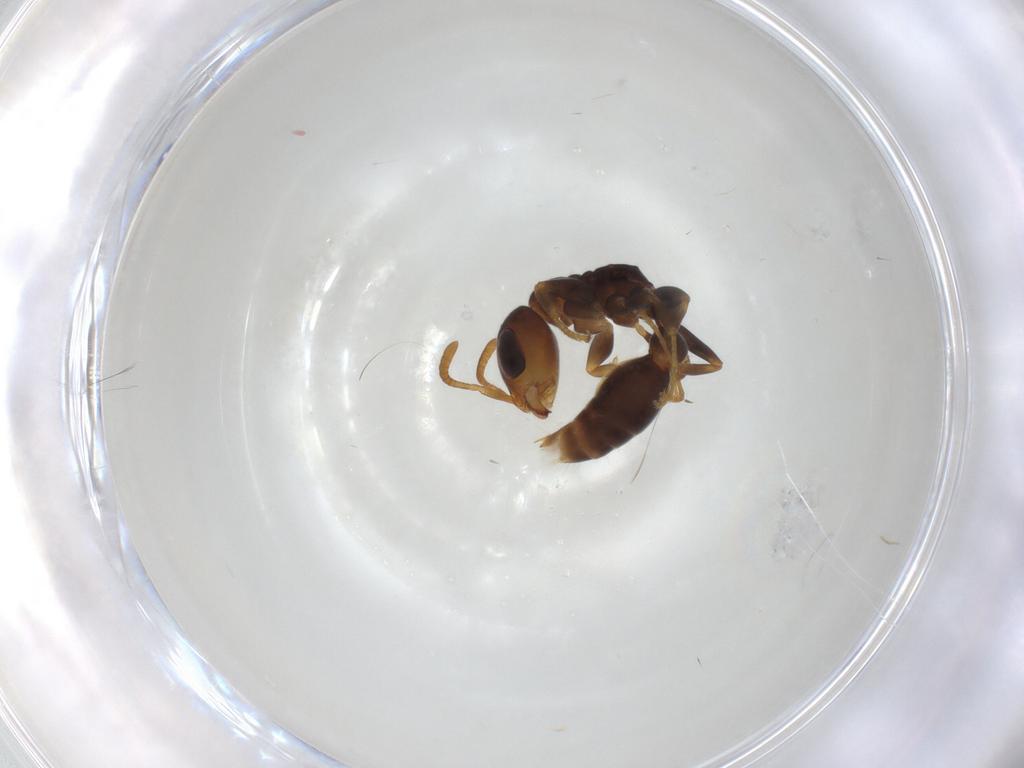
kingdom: Animalia
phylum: Arthropoda
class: Insecta
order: Hymenoptera
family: Formicidae
